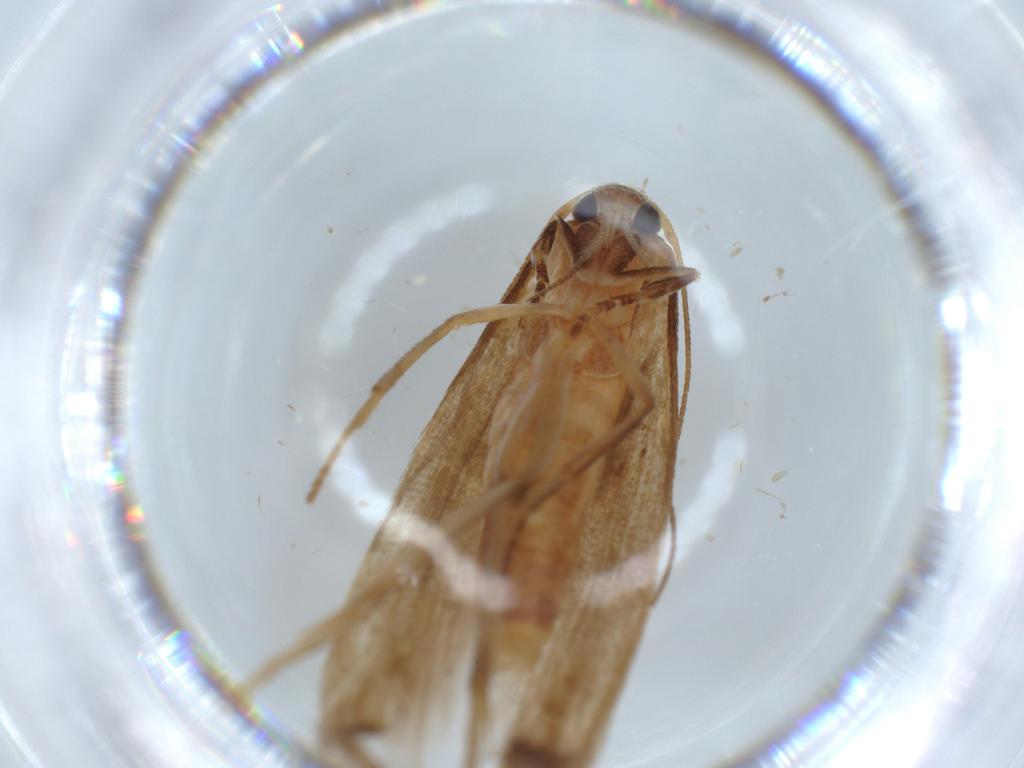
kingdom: Animalia
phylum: Arthropoda
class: Insecta
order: Lepidoptera
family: Stathmopodidae
